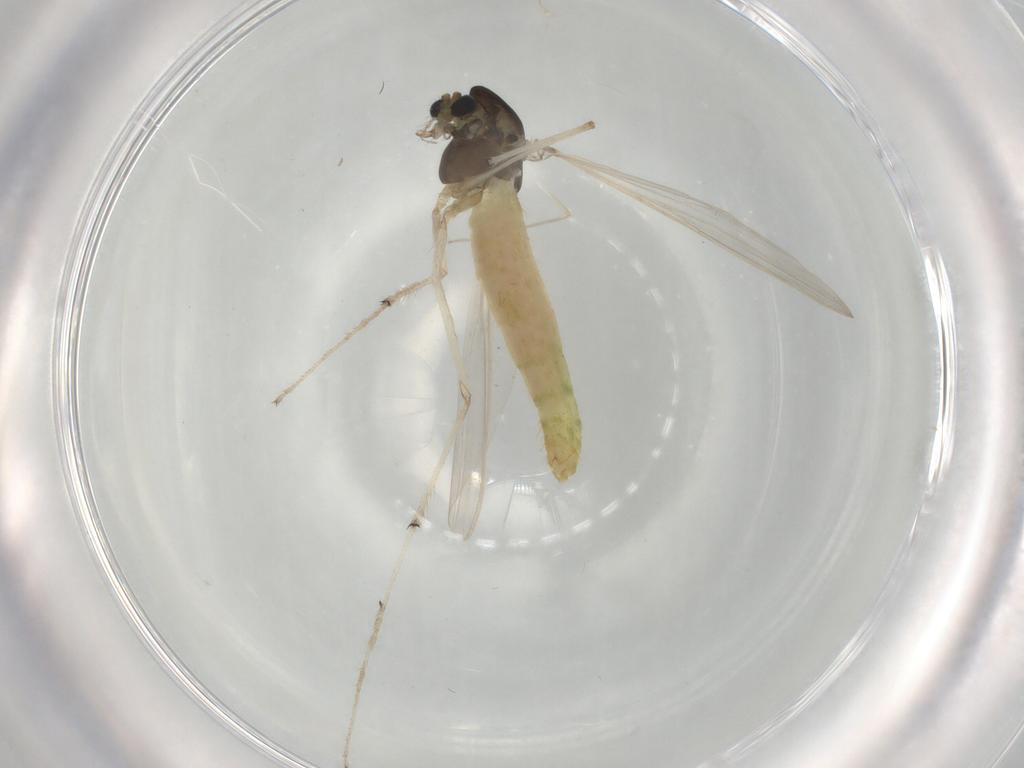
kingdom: Animalia
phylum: Arthropoda
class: Insecta
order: Diptera
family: Chironomidae
